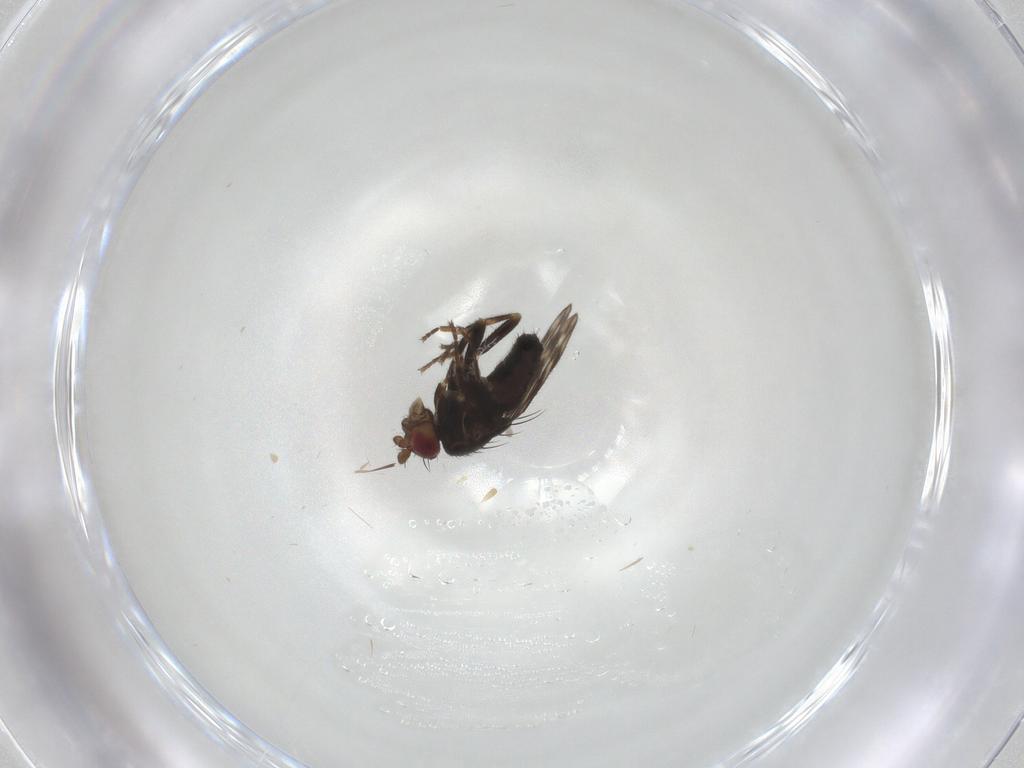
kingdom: Animalia
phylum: Arthropoda
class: Insecta
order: Diptera
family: Sphaeroceridae
